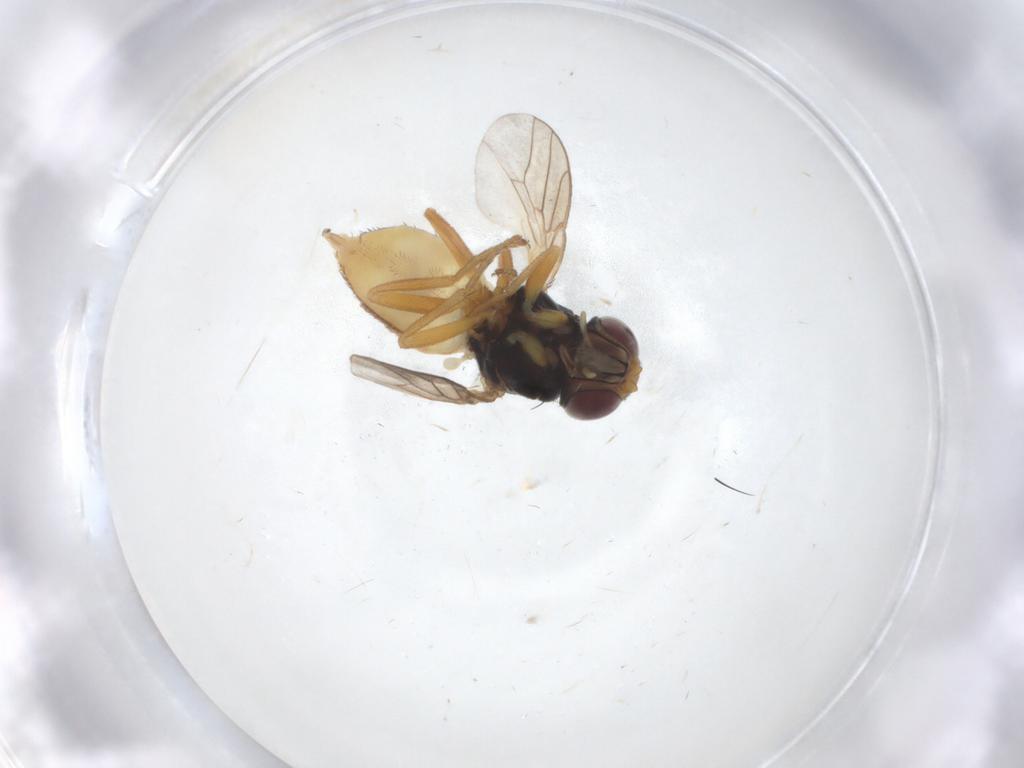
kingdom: Animalia
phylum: Arthropoda
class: Insecta
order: Diptera
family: Chloropidae
